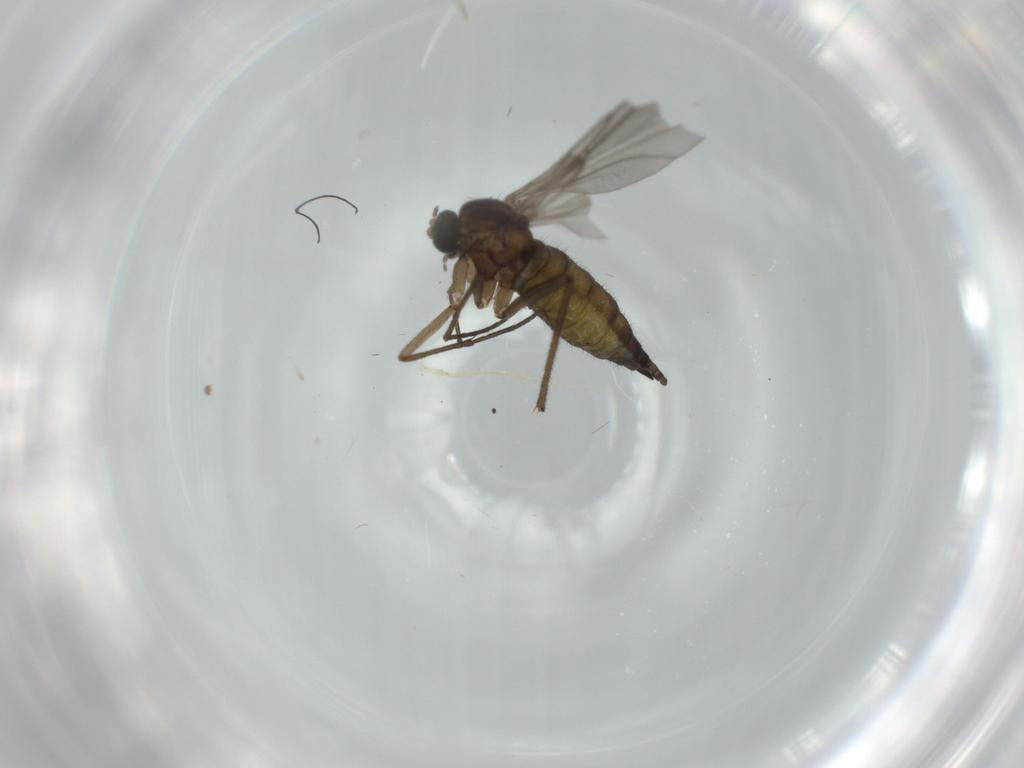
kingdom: Animalia
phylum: Arthropoda
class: Insecta
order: Diptera
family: Sciaridae
